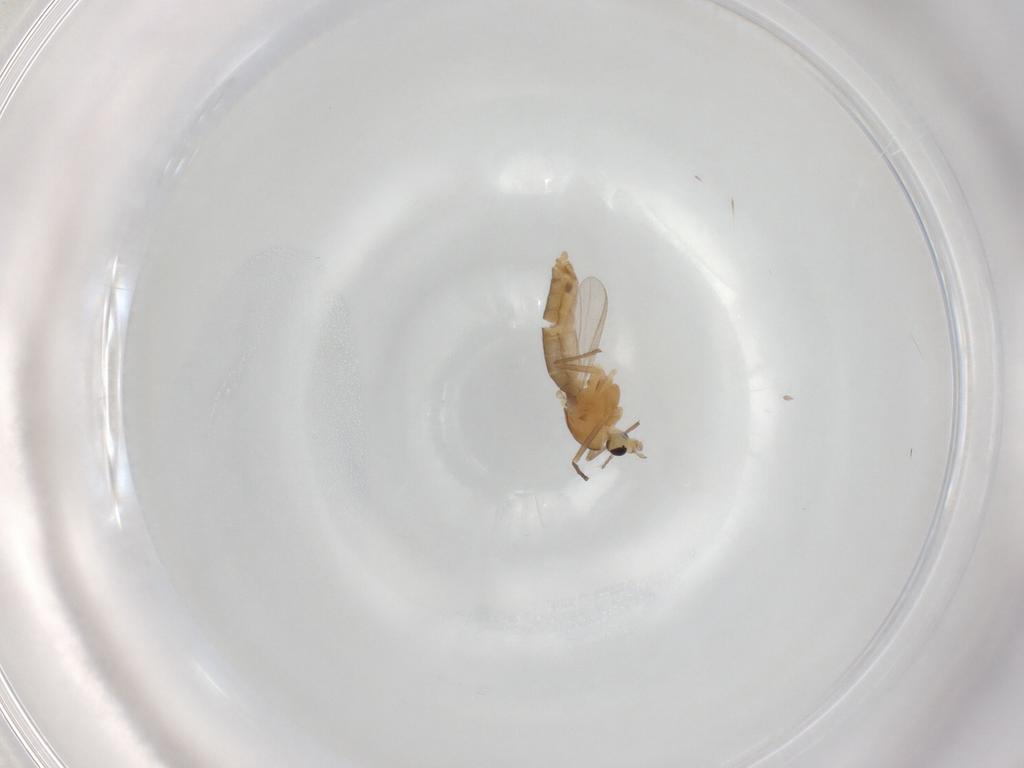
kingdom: Animalia
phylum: Arthropoda
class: Insecta
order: Diptera
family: Chironomidae
